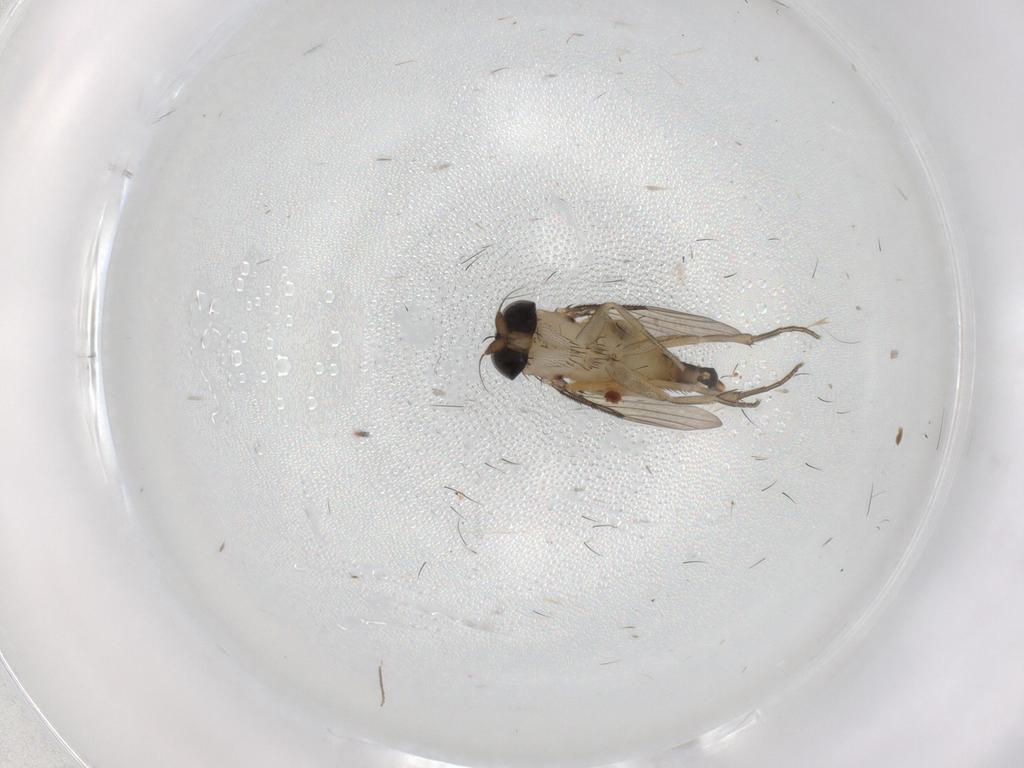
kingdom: Animalia
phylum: Arthropoda
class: Insecta
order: Diptera
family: Phoridae
